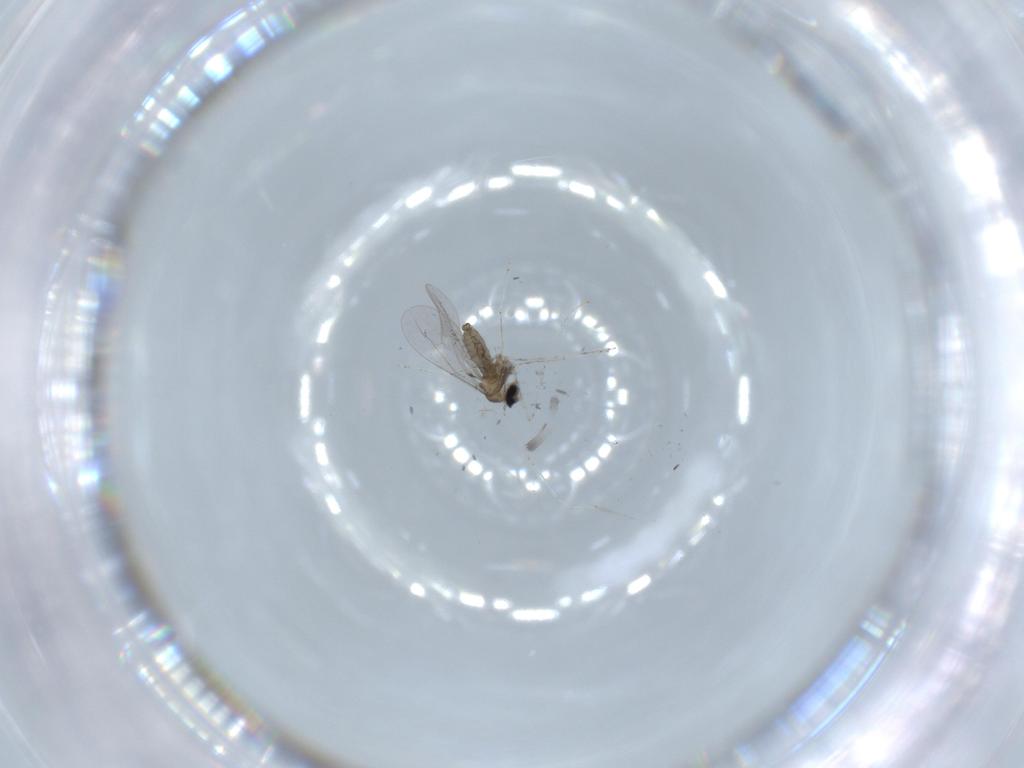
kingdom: Animalia
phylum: Arthropoda
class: Insecta
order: Diptera
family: Cecidomyiidae
